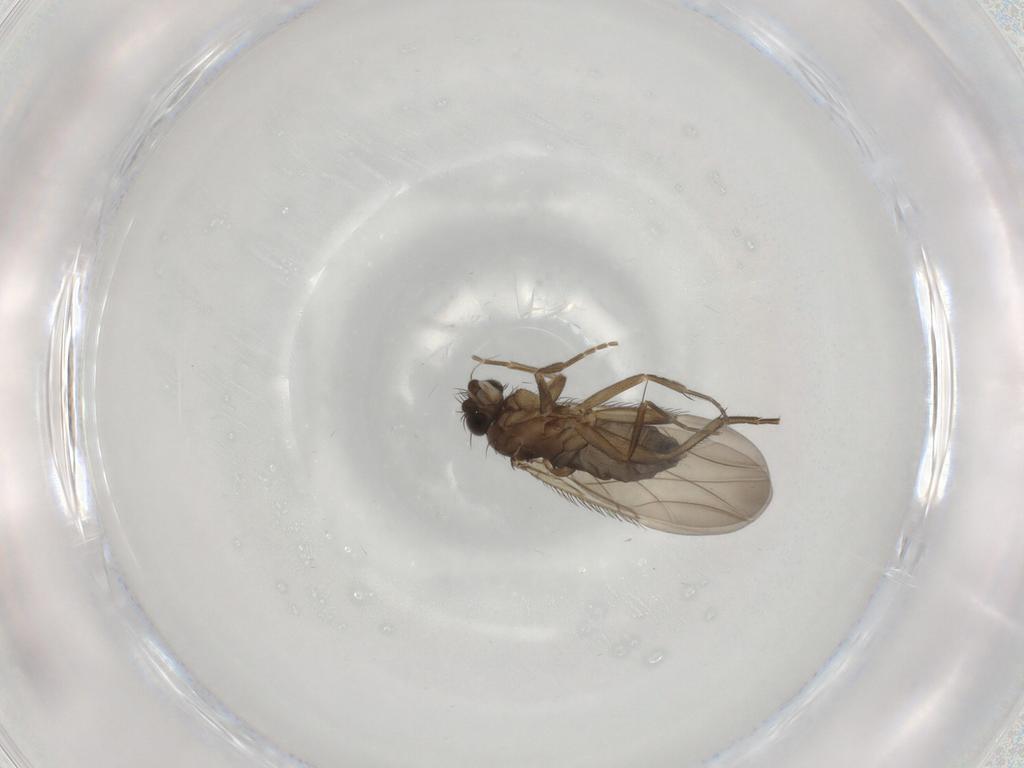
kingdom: Animalia
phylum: Arthropoda
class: Insecta
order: Diptera
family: Phoridae
